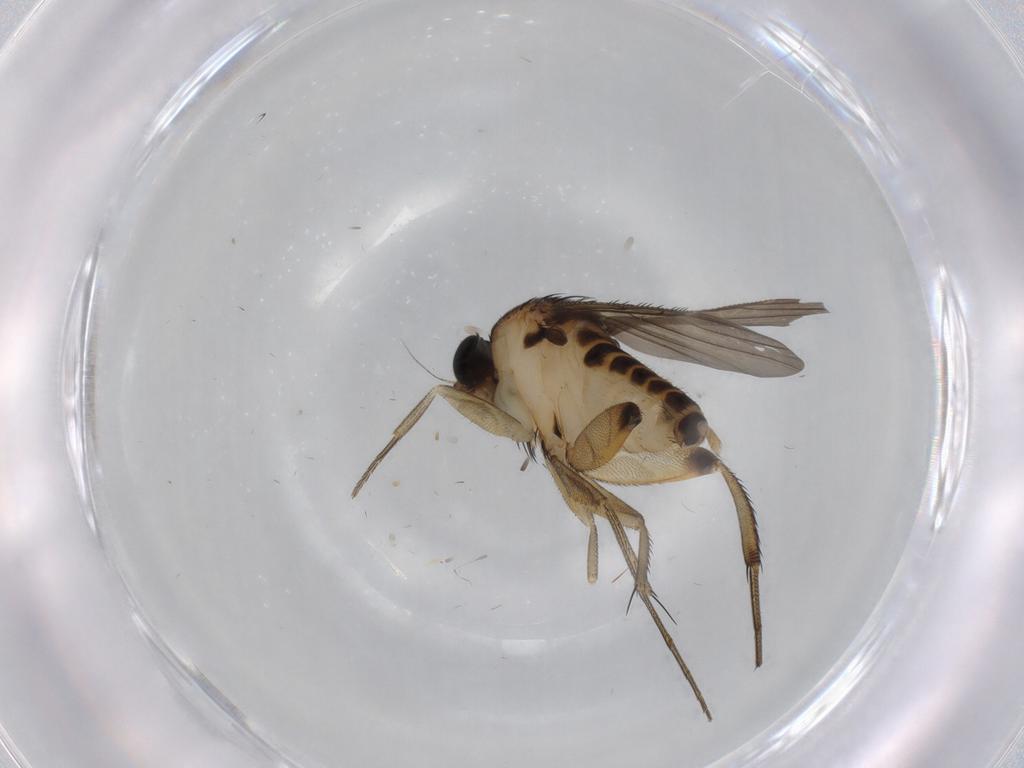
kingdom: Animalia
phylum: Arthropoda
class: Insecta
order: Diptera
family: Phoridae
